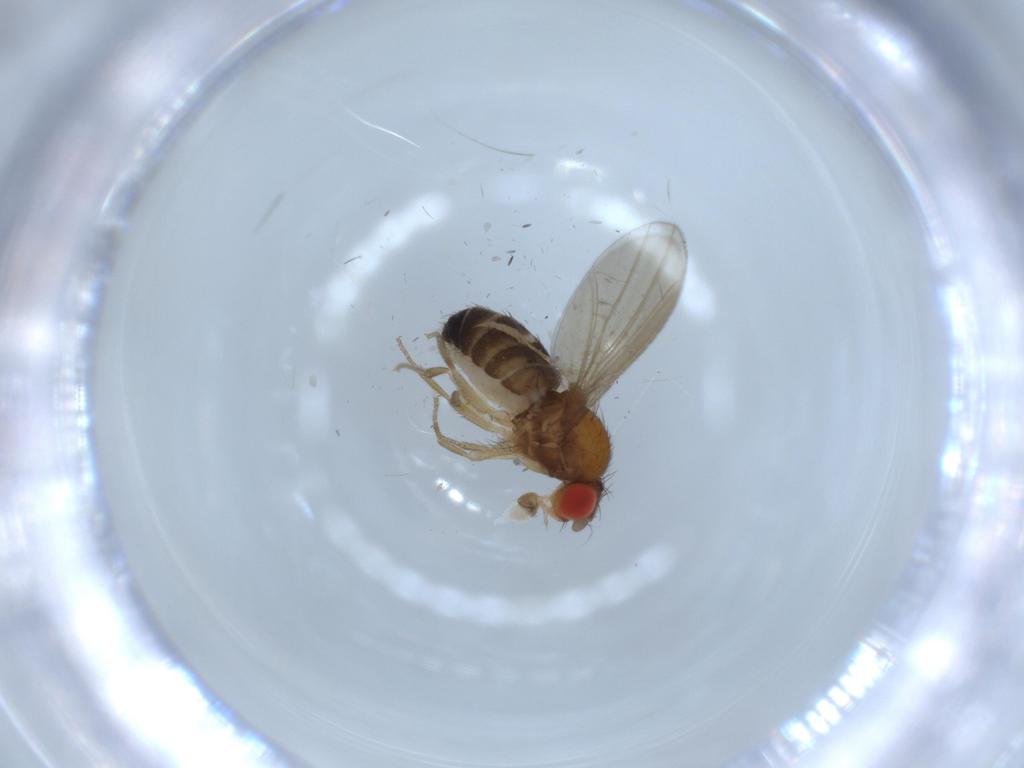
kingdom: Animalia
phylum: Arthropoda
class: Insecta
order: Diptera
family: Drosophilidae
